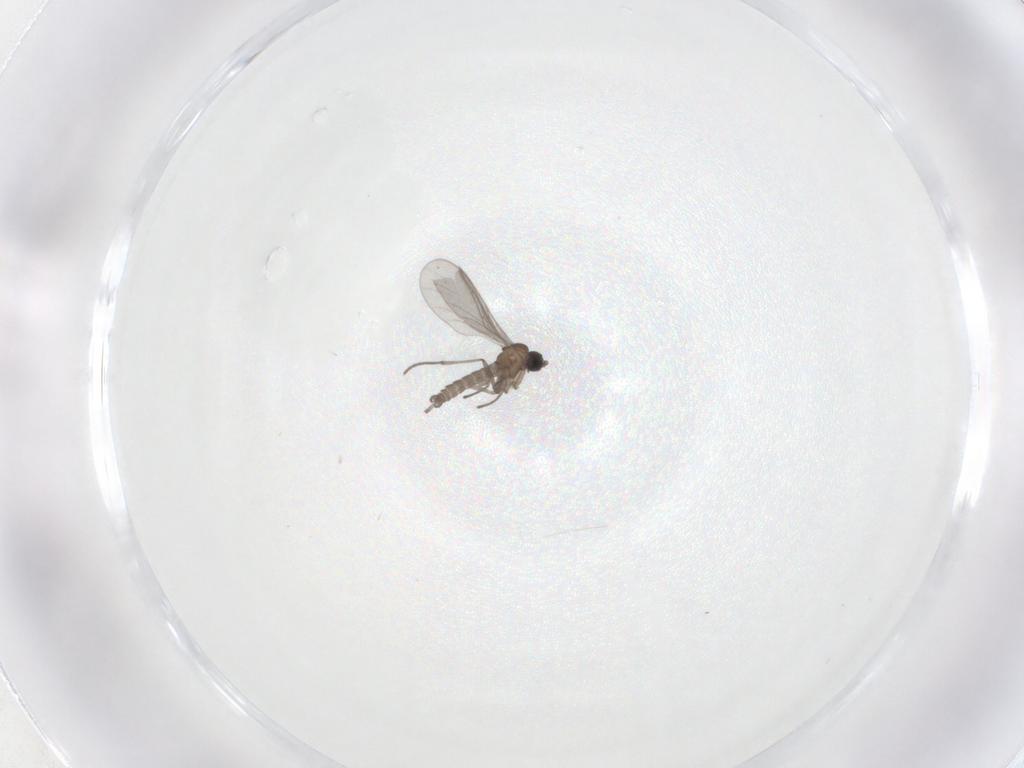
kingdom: Animalia
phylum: Arthropoda
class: Insecta
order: Diptera
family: Sciaridae
